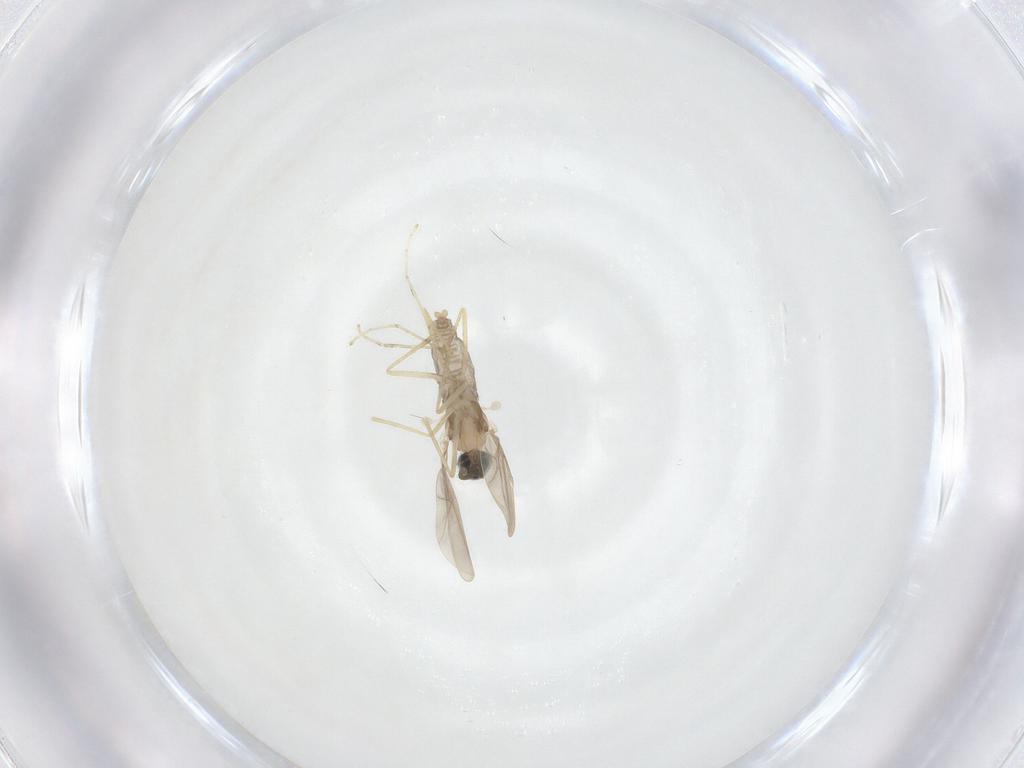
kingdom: Animalia
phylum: Arthropoda
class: Insecta
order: Diptera
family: Cecidomyiidae
